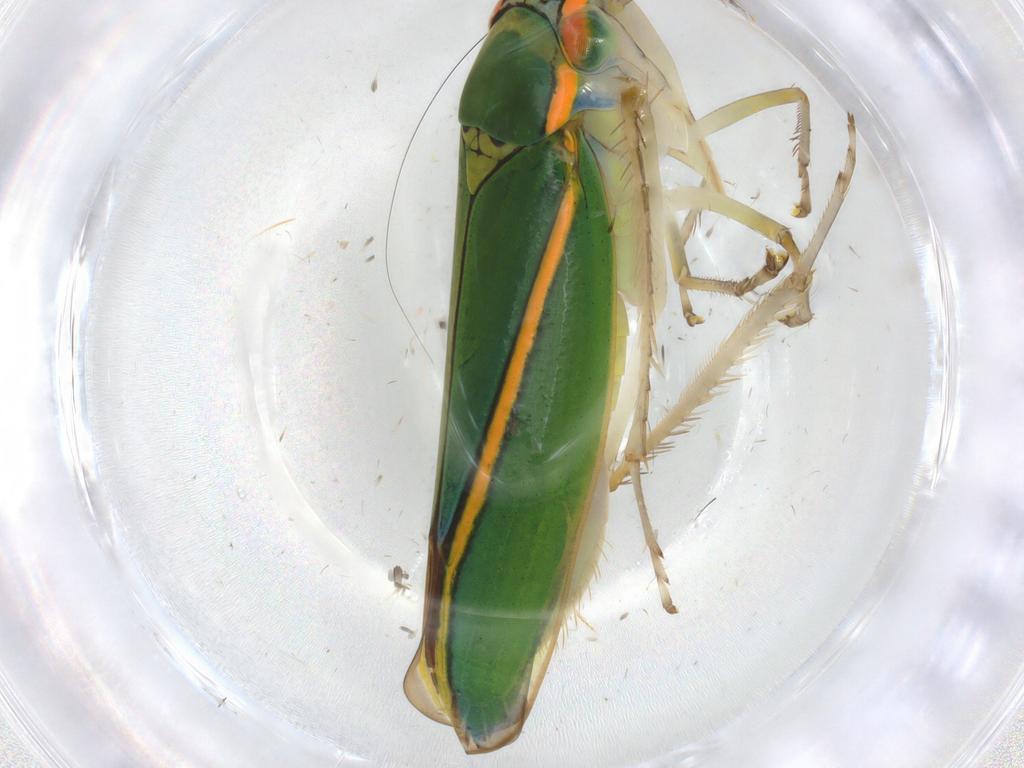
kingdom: Animalia
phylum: Arthropoda
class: Insecta
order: Hemiptera
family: Cicadellidae
